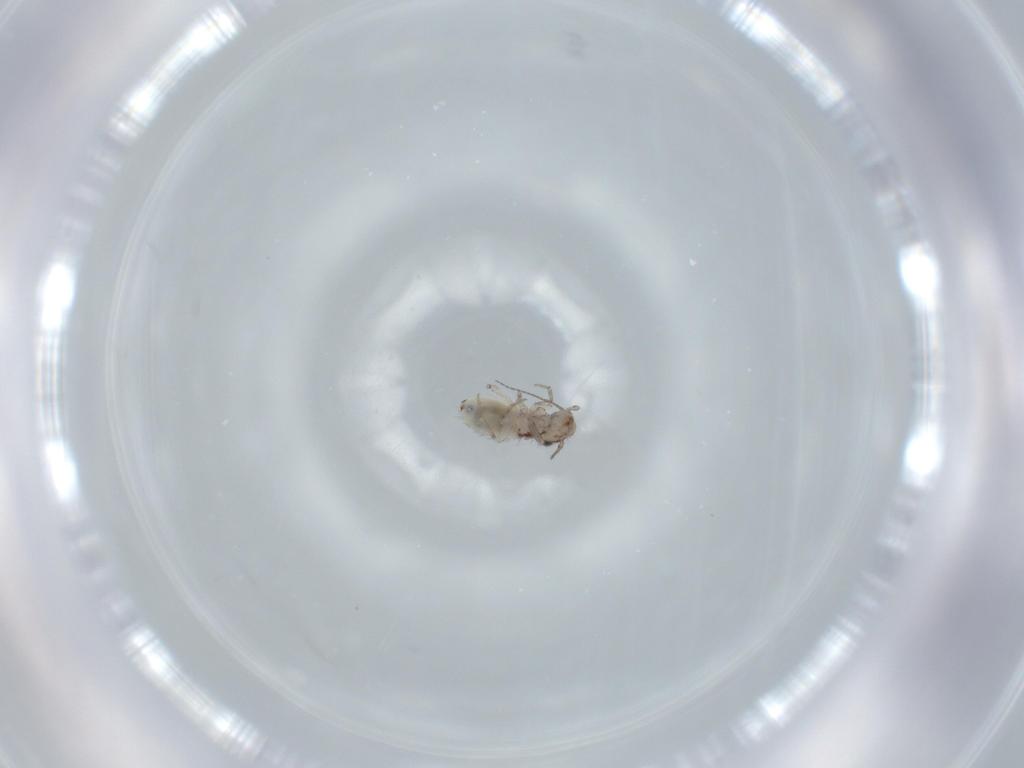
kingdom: Animalia
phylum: Arthropoda
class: Insecta
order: Psocodea
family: Lepidopsocidae
